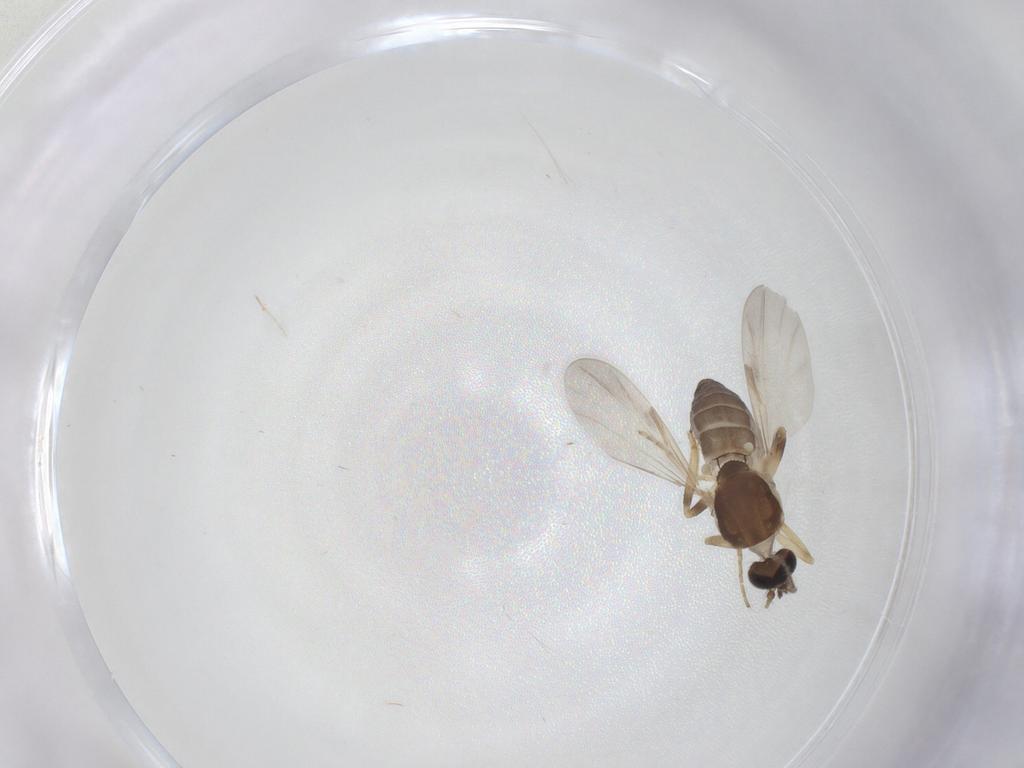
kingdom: Animalia
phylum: Arthropoda
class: Insecta
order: Diptera
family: Ceratopogonidae
